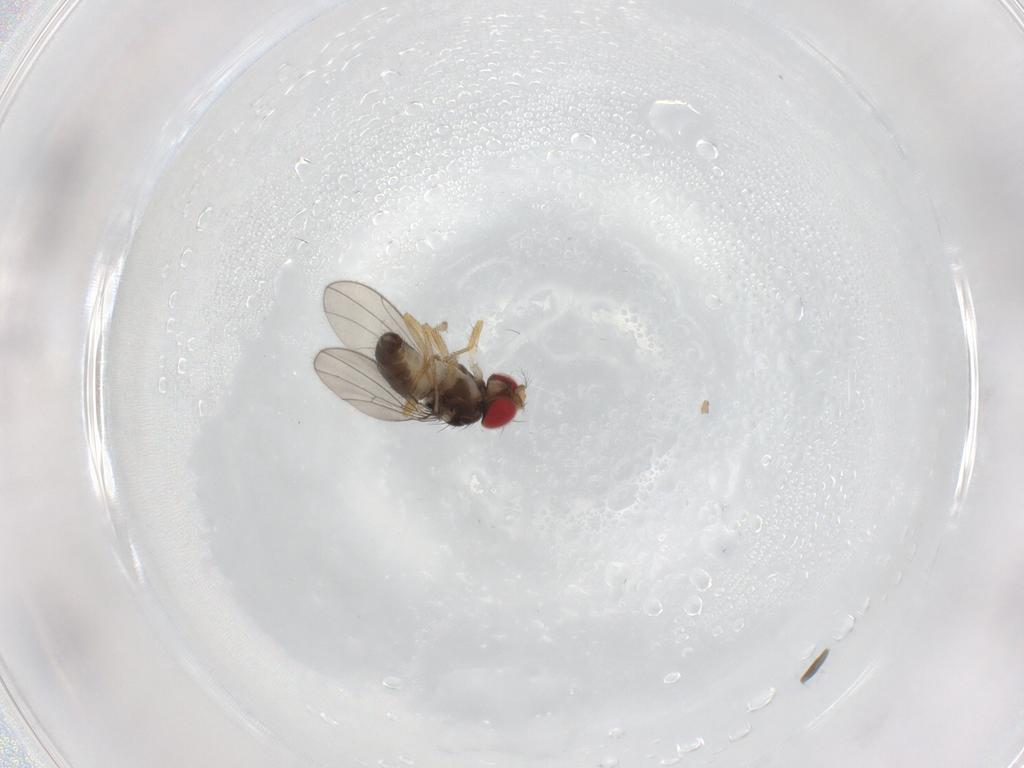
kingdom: Animalia
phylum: Arthropoda
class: Insecta
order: Diptera
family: Drosophilidae
